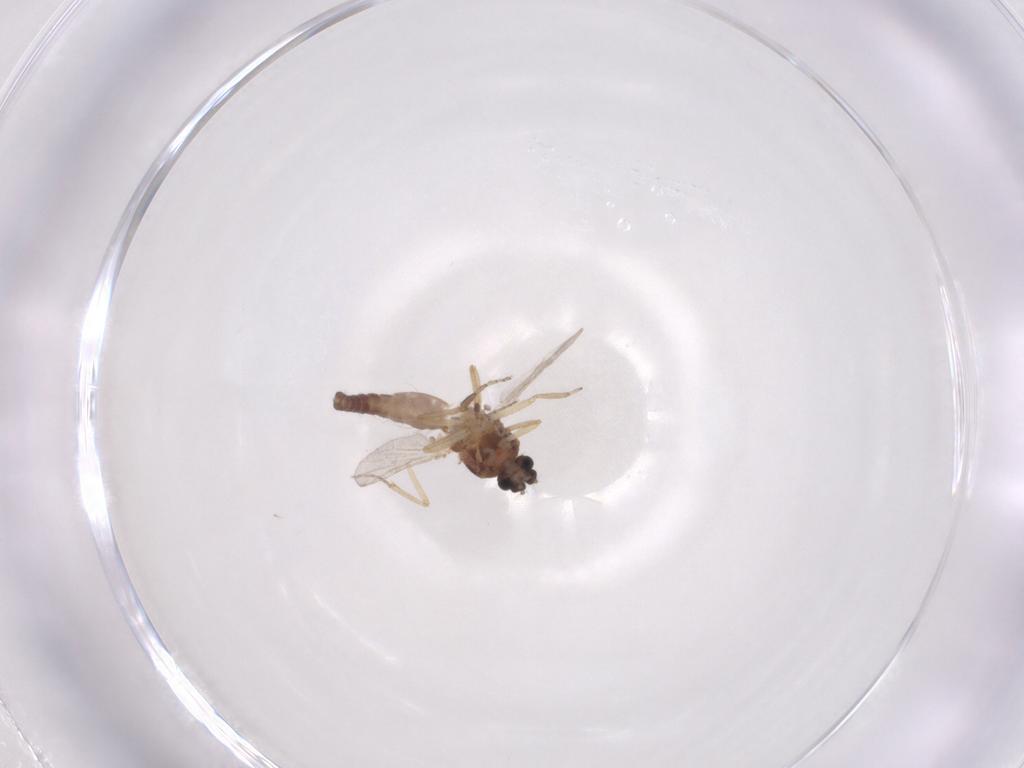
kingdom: Animalia
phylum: Arthropoda
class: Insecta
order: Diptera
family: Ceratopogonidae
